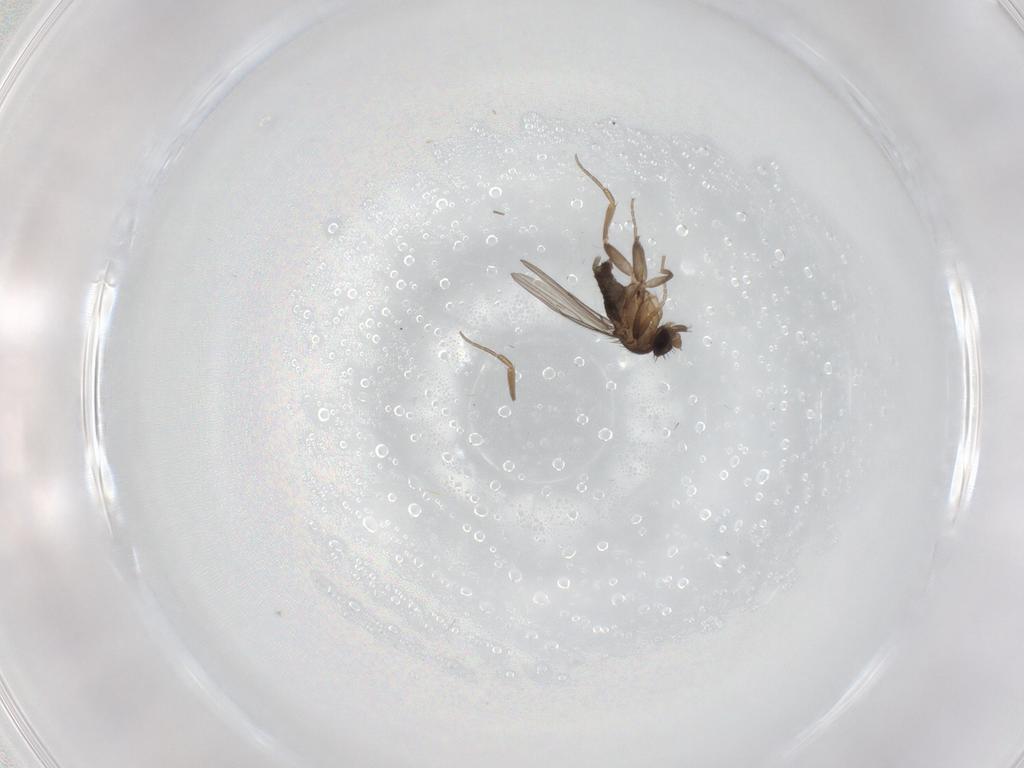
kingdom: Animalia
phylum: Arthropoda
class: Insecta
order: Diptera
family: Phoridae
